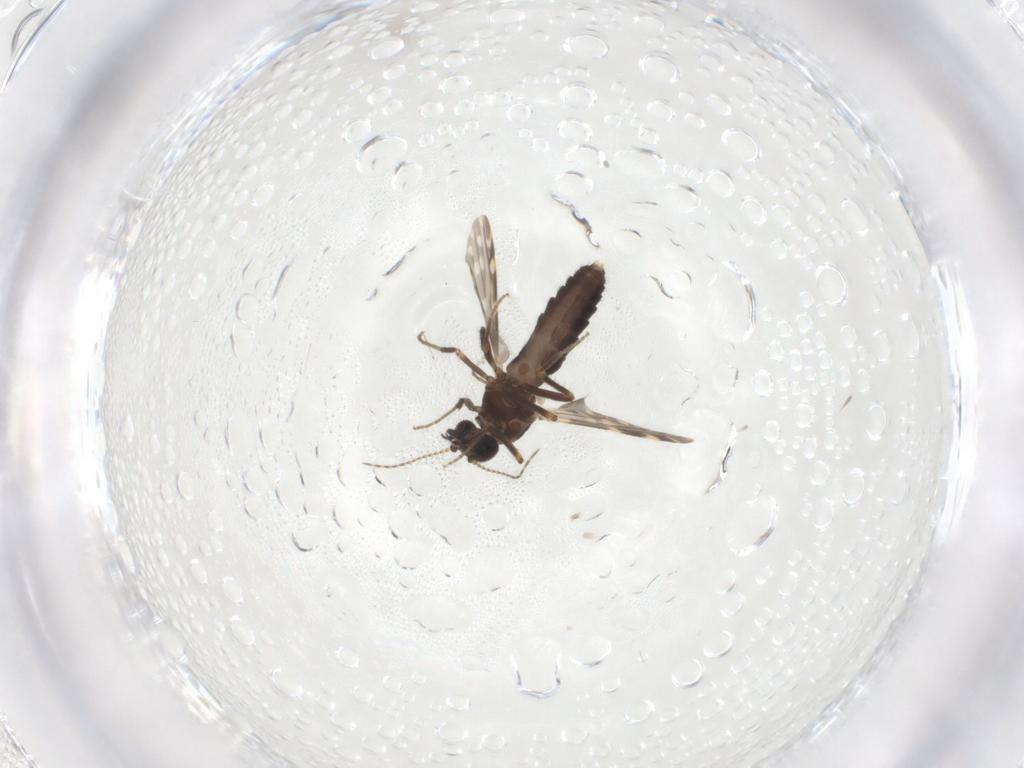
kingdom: Animalia
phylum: Arthropoda
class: Insecta
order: Diptera
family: Ceratopogonidae
